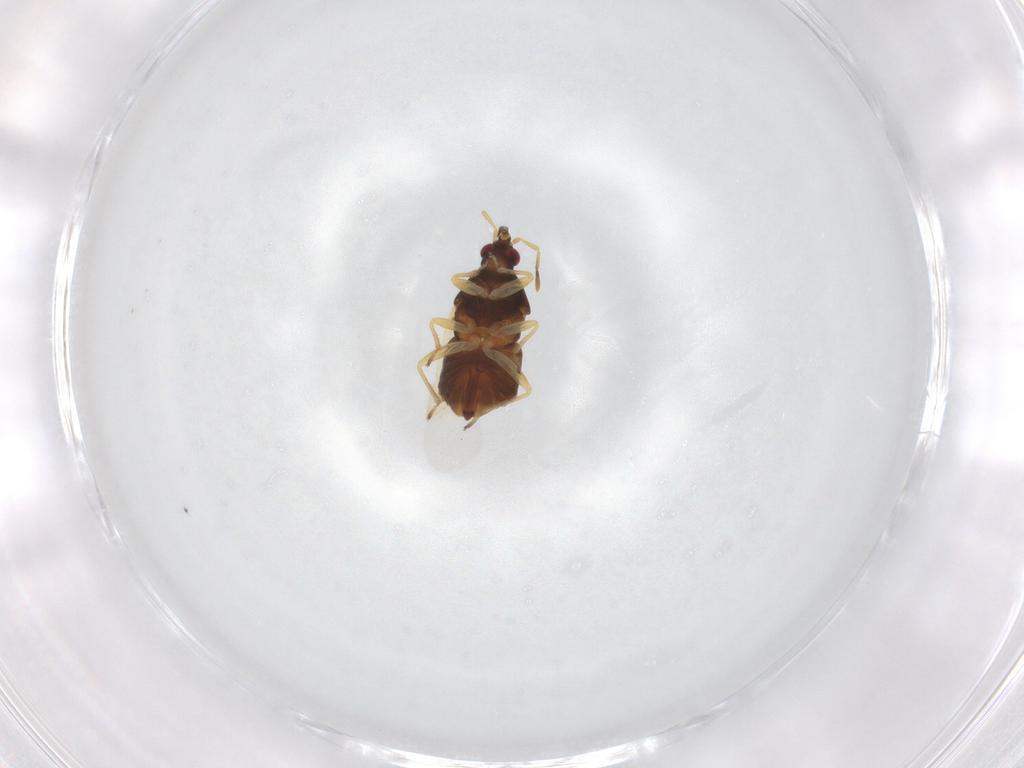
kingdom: Animalia
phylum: Arthropoda
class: Insecta
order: Hemiptera
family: Anthocoridae
